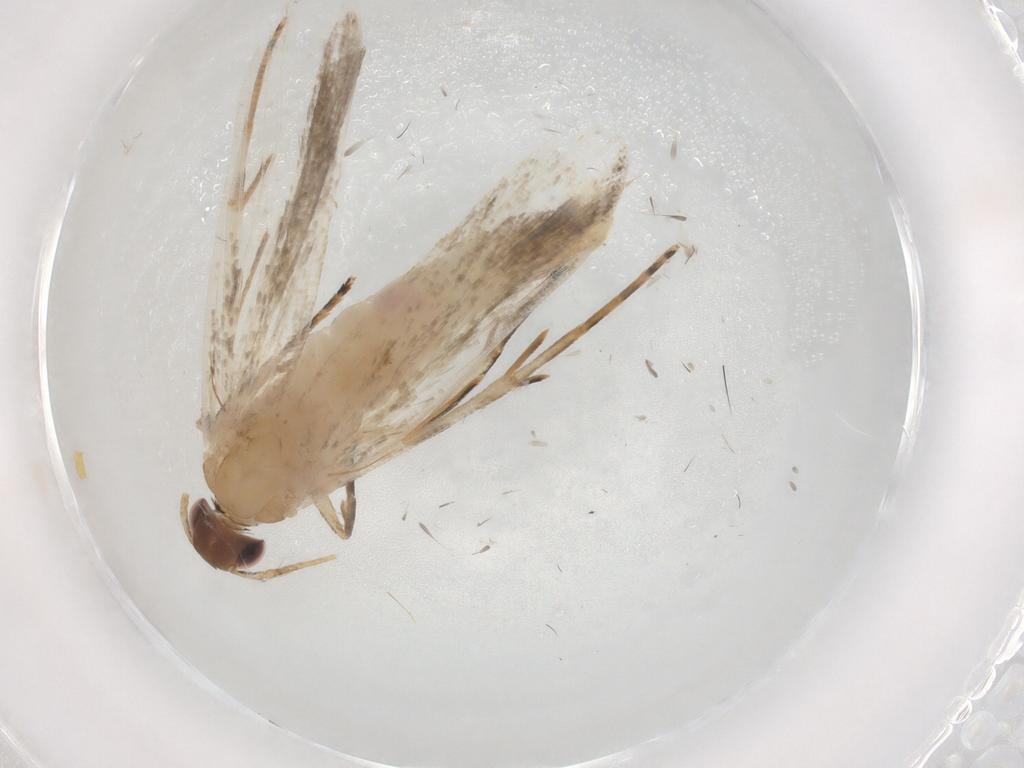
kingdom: Animalia
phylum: Arthropoda
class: Insecta
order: Lepidoptera
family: Gelechiidae
